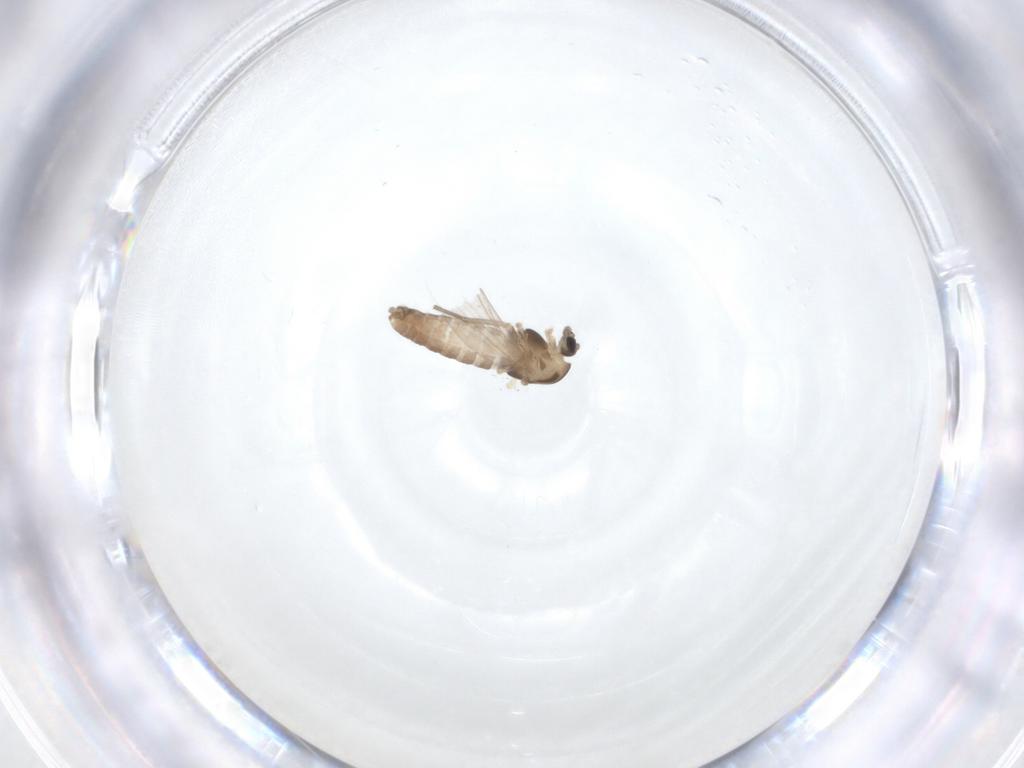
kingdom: Animalia
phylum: Arthropoda
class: Insecta
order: Diptera
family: Chironomidae
